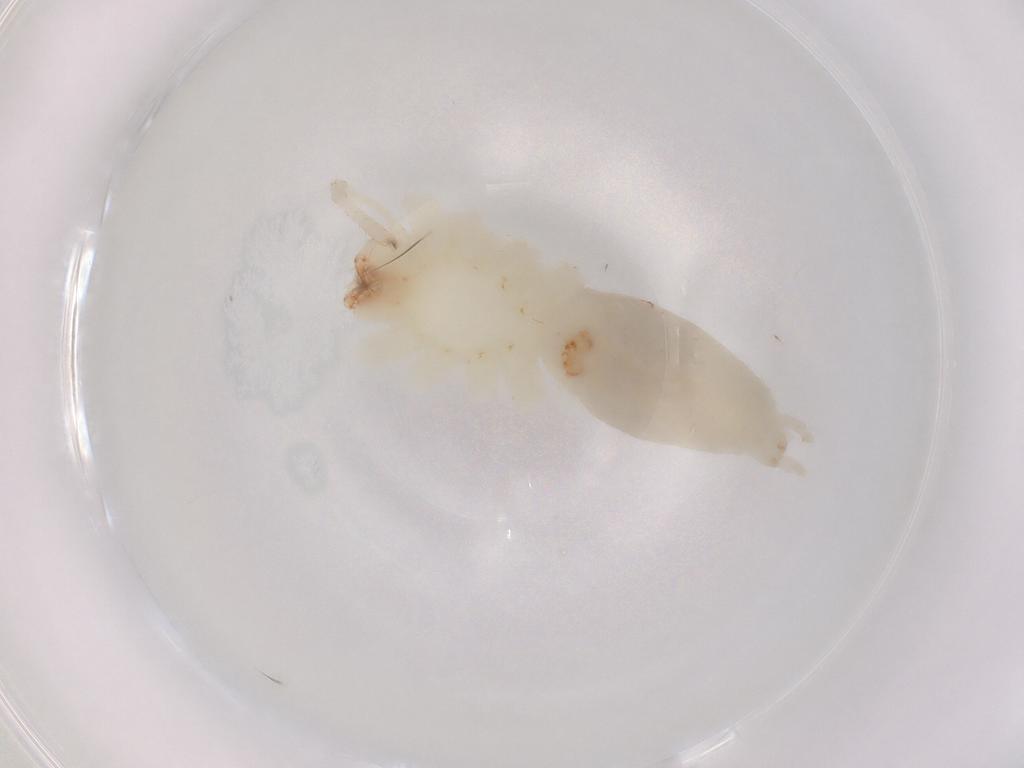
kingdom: Animalia
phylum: Arthropoda
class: Arachnida
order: Araneae
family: Anyphaenidae
